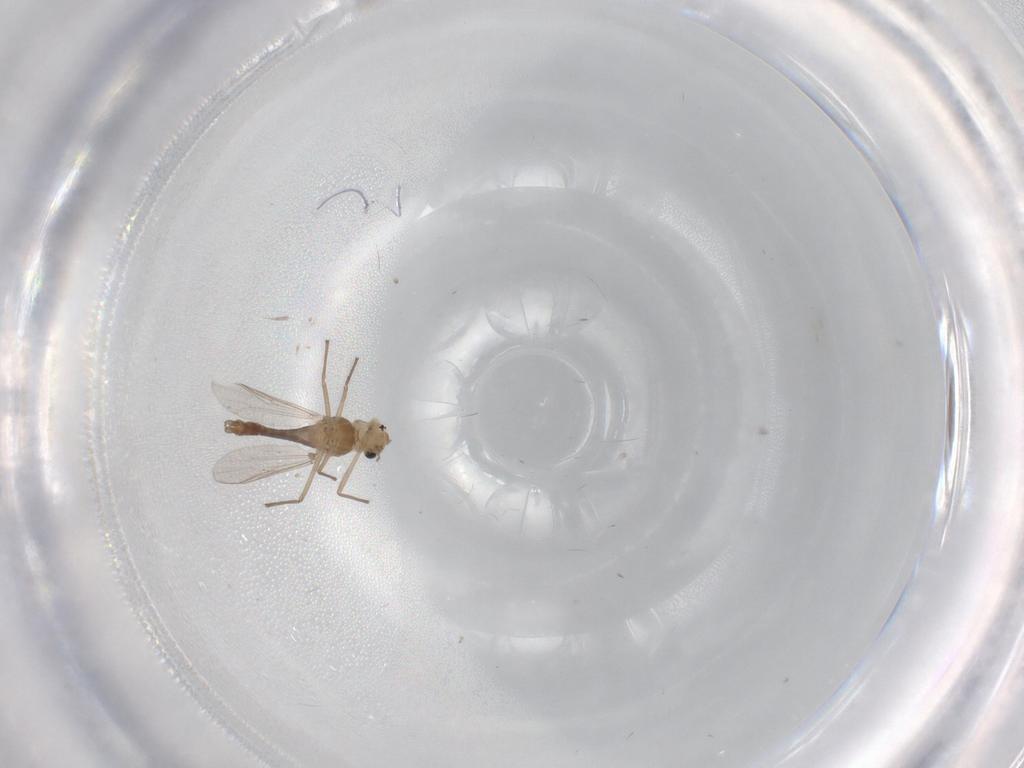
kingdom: Animalia
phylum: Arthropoda
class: Insecta
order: Diptera
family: Chironomidae
